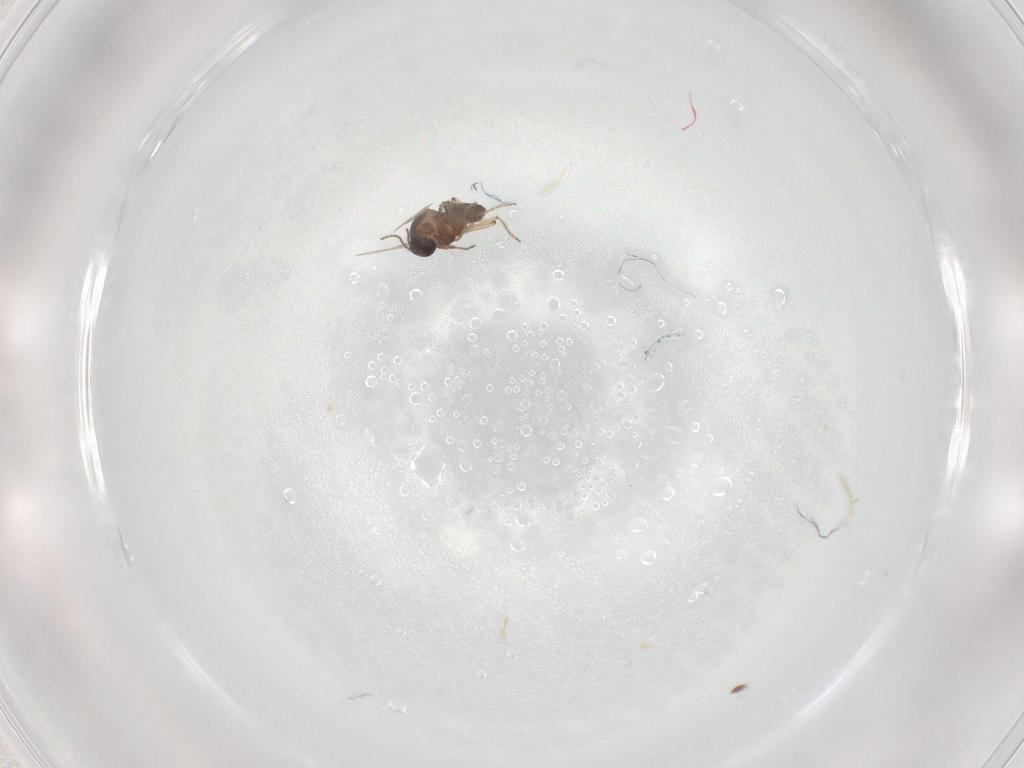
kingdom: Animalia
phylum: Arthropoda
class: Insecta
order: Diptera
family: Ceratopogonidae
